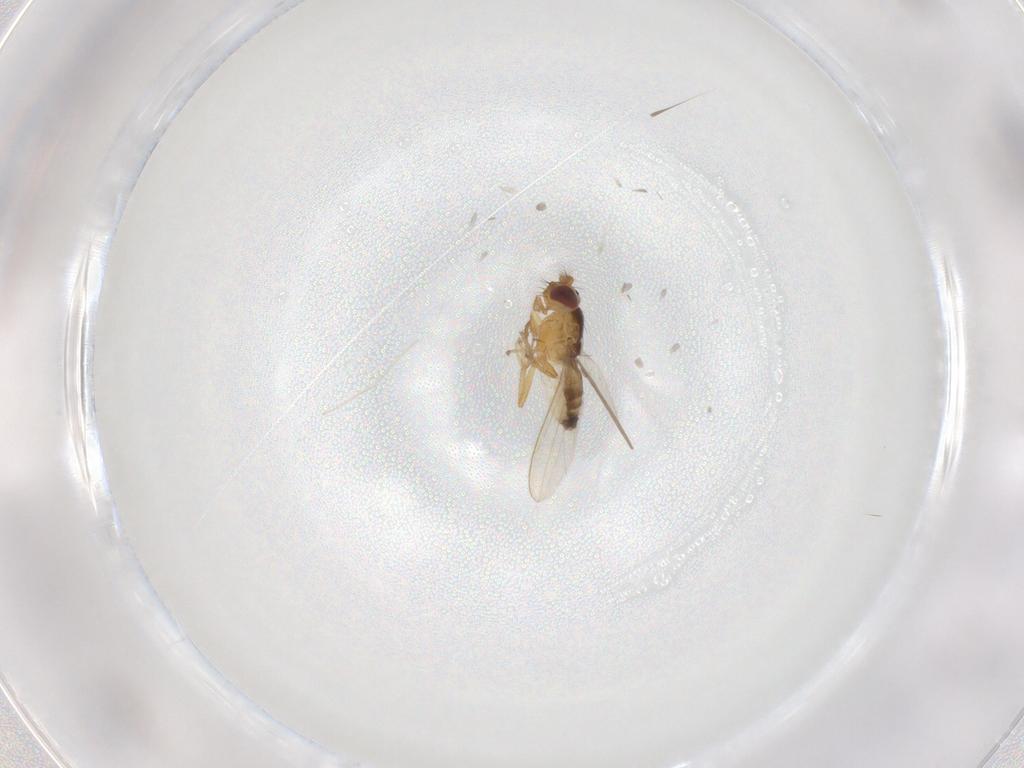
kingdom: Animalia
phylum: Arthropoda
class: Insecta
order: Diptera
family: Periscelididae
